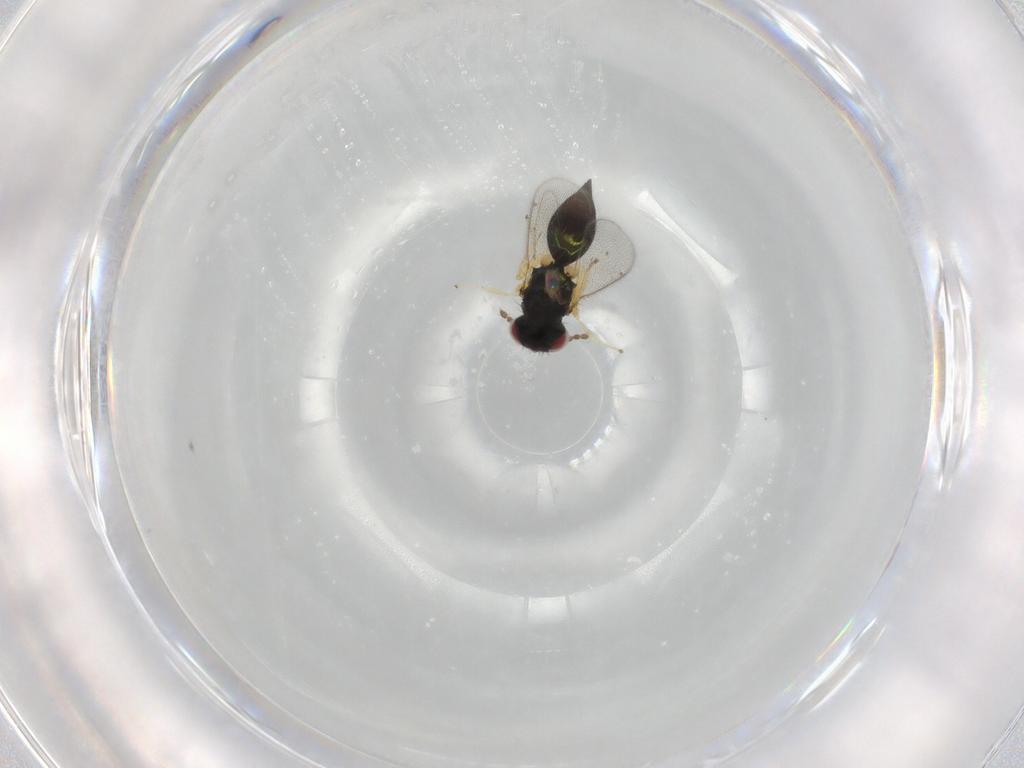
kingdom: Animalia
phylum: Arthropoda
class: Insecta
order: Hymenoptera
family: Eulophidae
